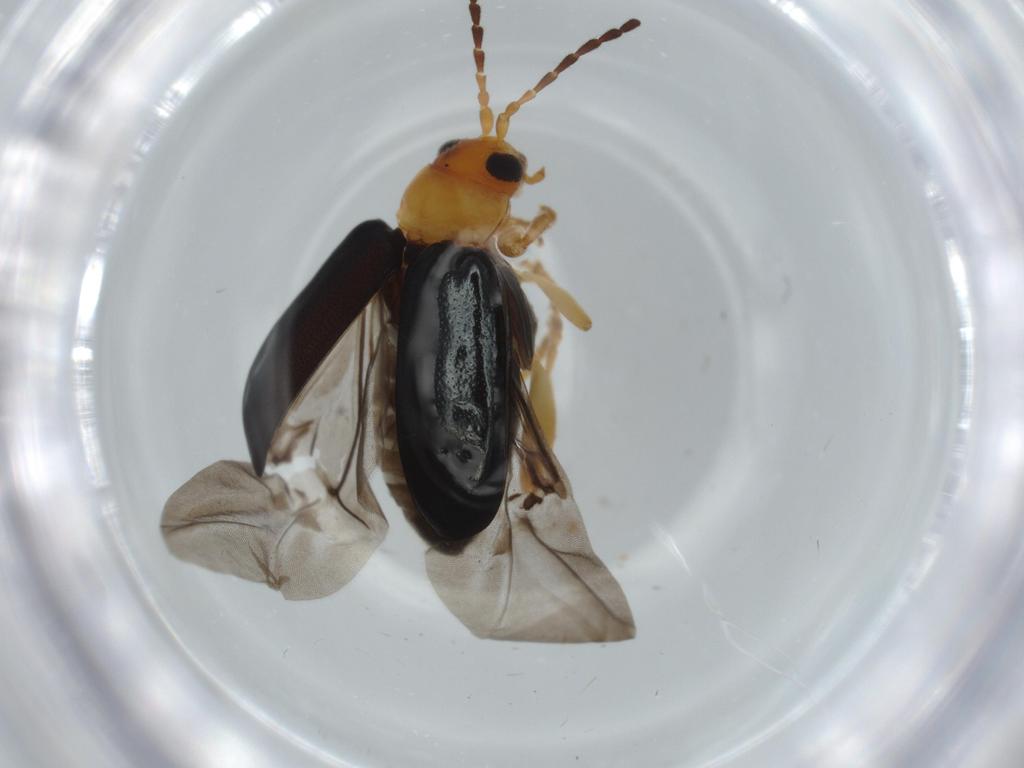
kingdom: Animalia
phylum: Arthropoda
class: Insecta
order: Coleoptera
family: Chrysomelidae
